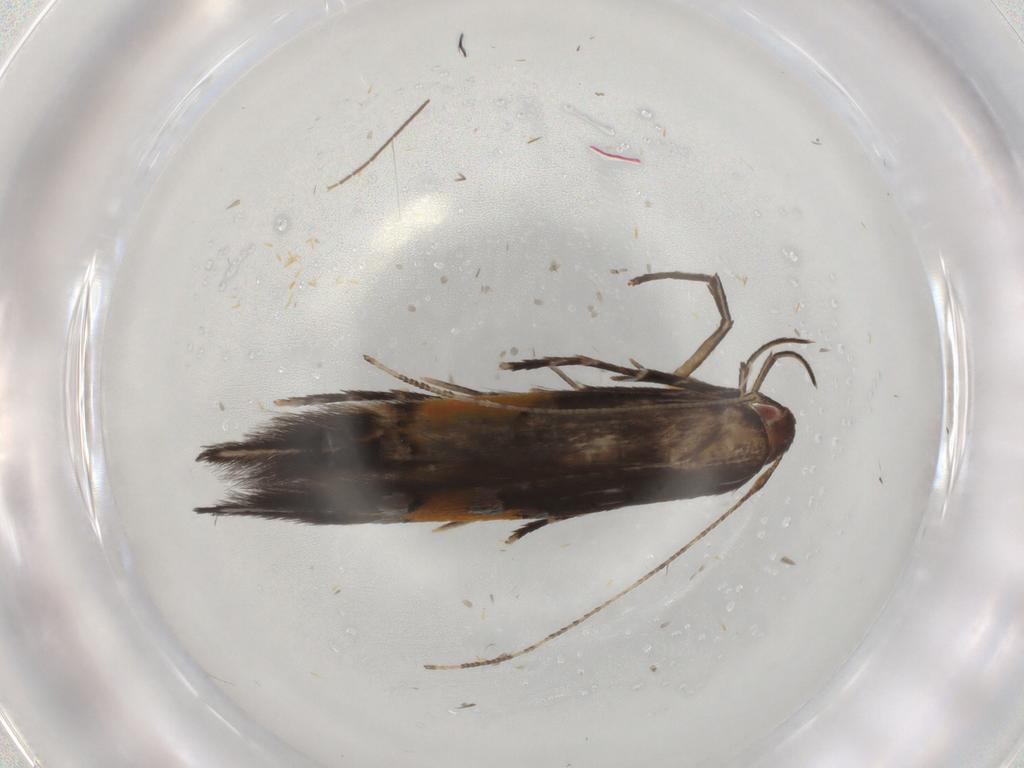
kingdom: Animalia
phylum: Arthropoda
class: Insecta
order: Lepidoptera
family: Cosmopterigidae
